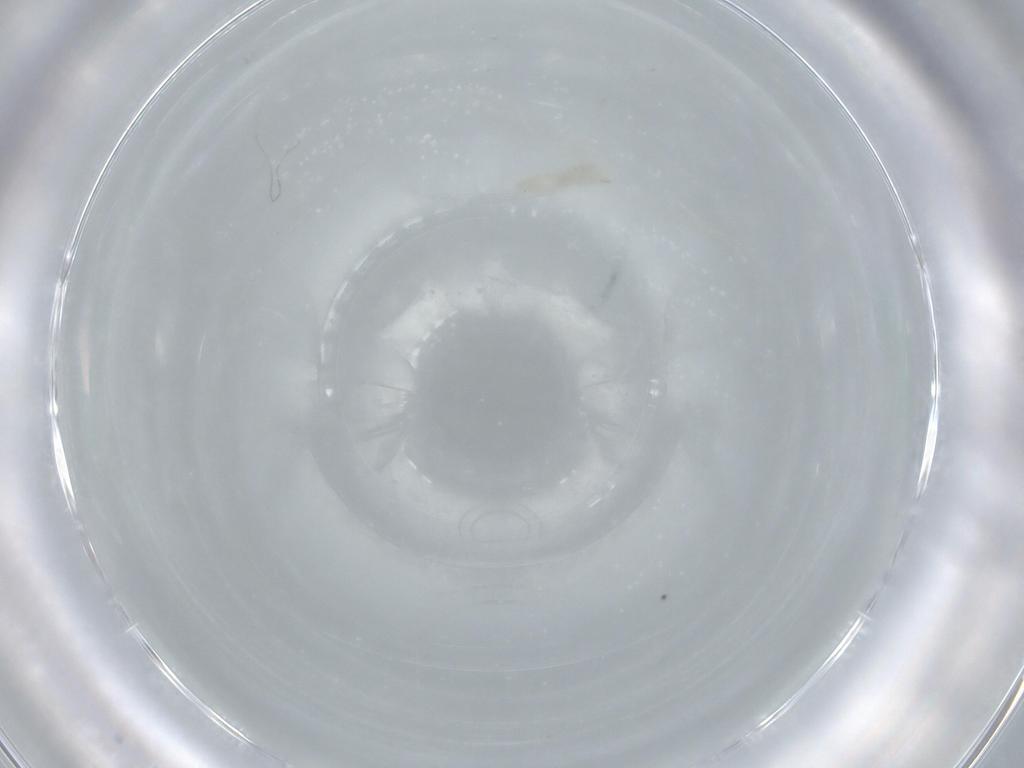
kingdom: Animalia
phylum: Arthropoda
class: Insecta
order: Diptera
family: Cecidomyiidae
